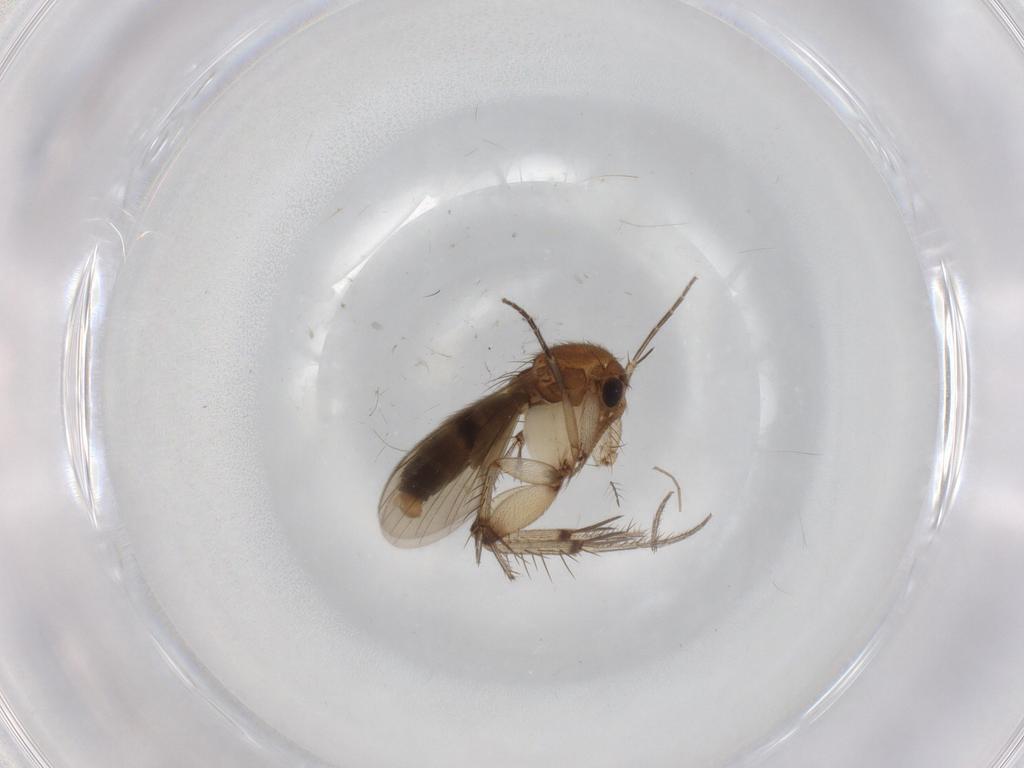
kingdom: Animalia
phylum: Arthropoda
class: Insecta
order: Diptera
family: Mycetophilidae
